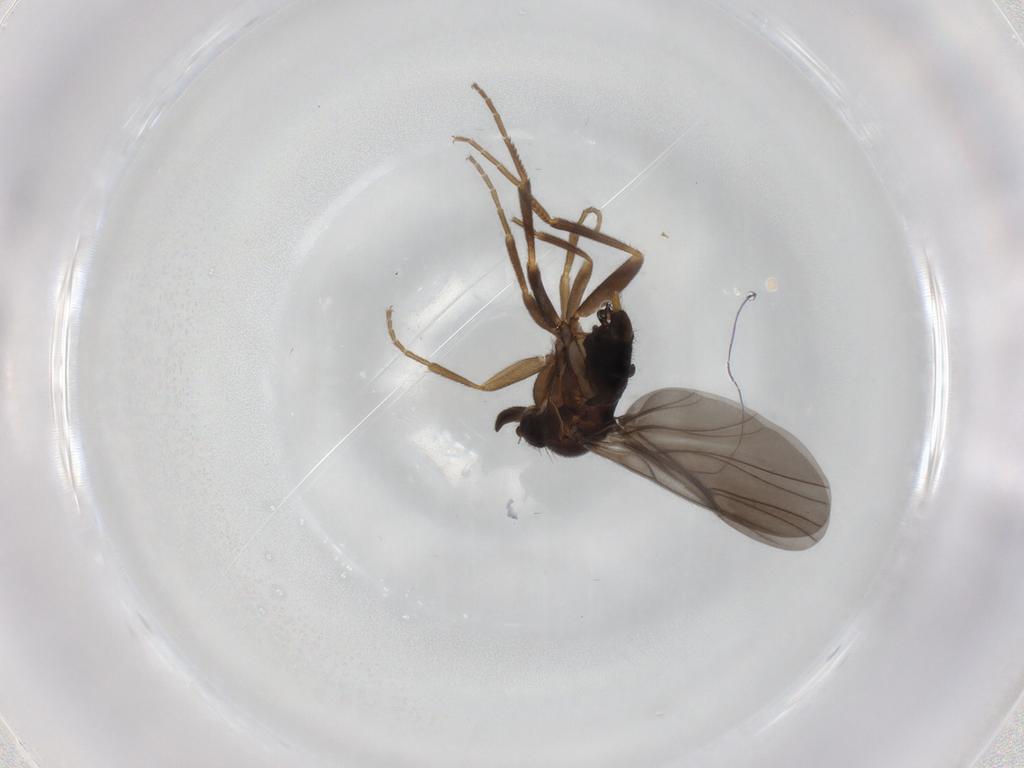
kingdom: Animalia
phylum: Arthropoda
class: Insecta
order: Diptera
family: Phoridae
